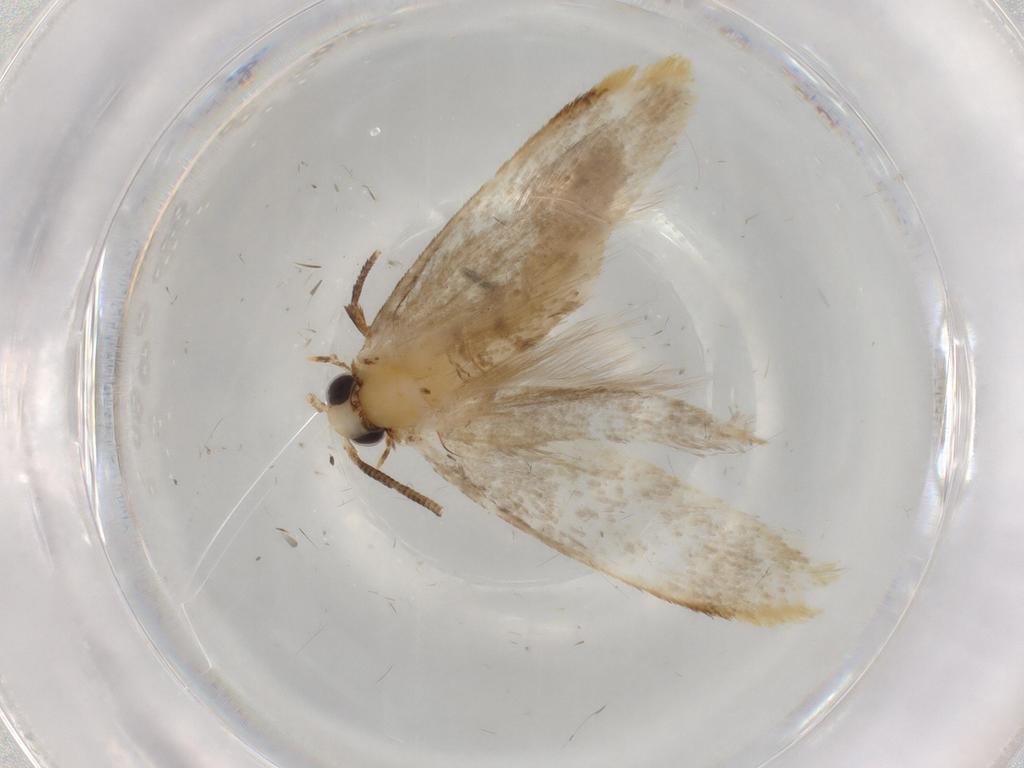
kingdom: Animalia
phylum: Arthropoda
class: Insecta
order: Lepidoptera
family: Tineidae
